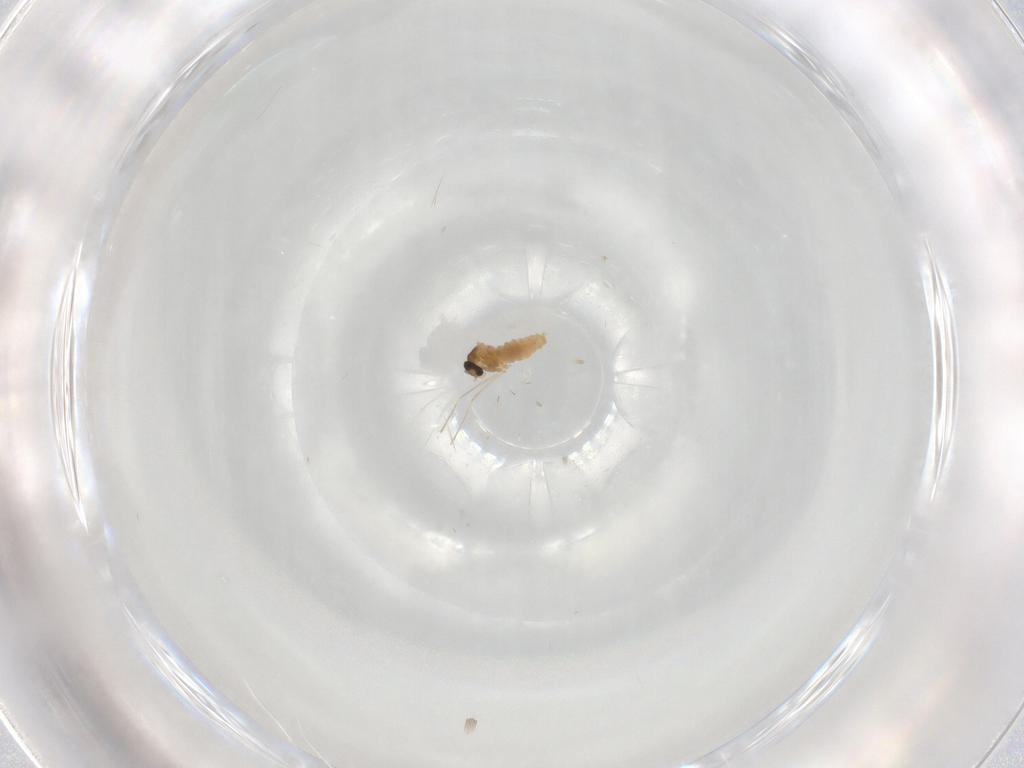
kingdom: Animalia
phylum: Arthropoda
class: Insecta
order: Diptera
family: Cecidomyiidae
